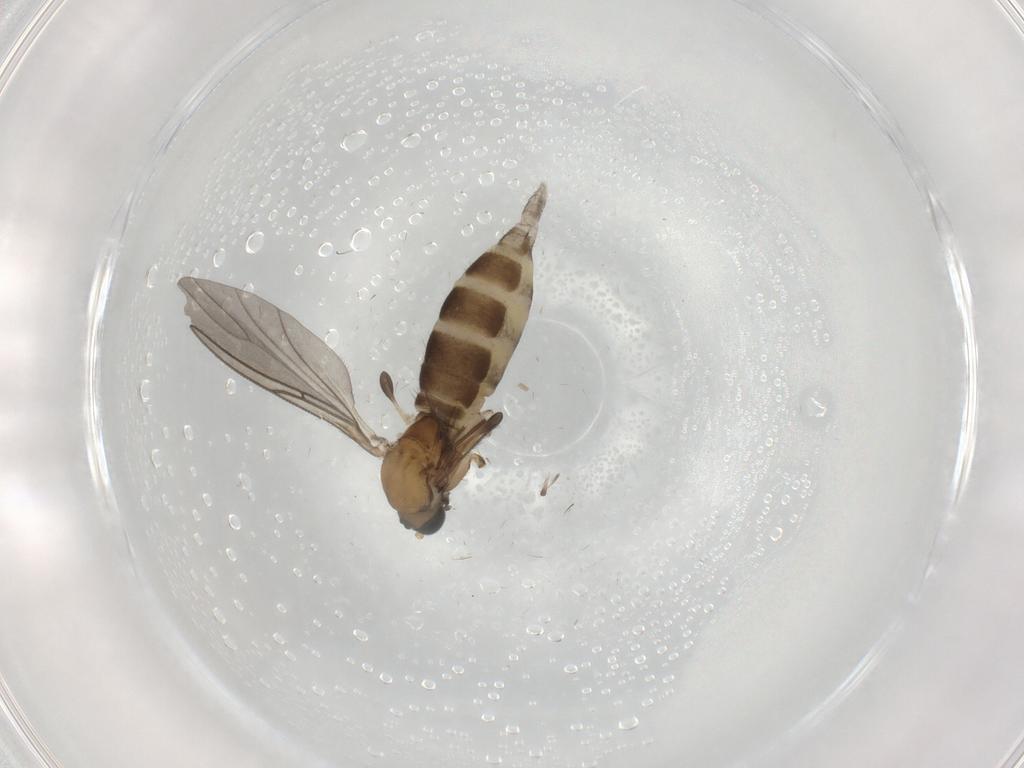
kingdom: Animalia
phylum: Arthropoda
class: Insecta
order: Diptera
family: Sciaridae
